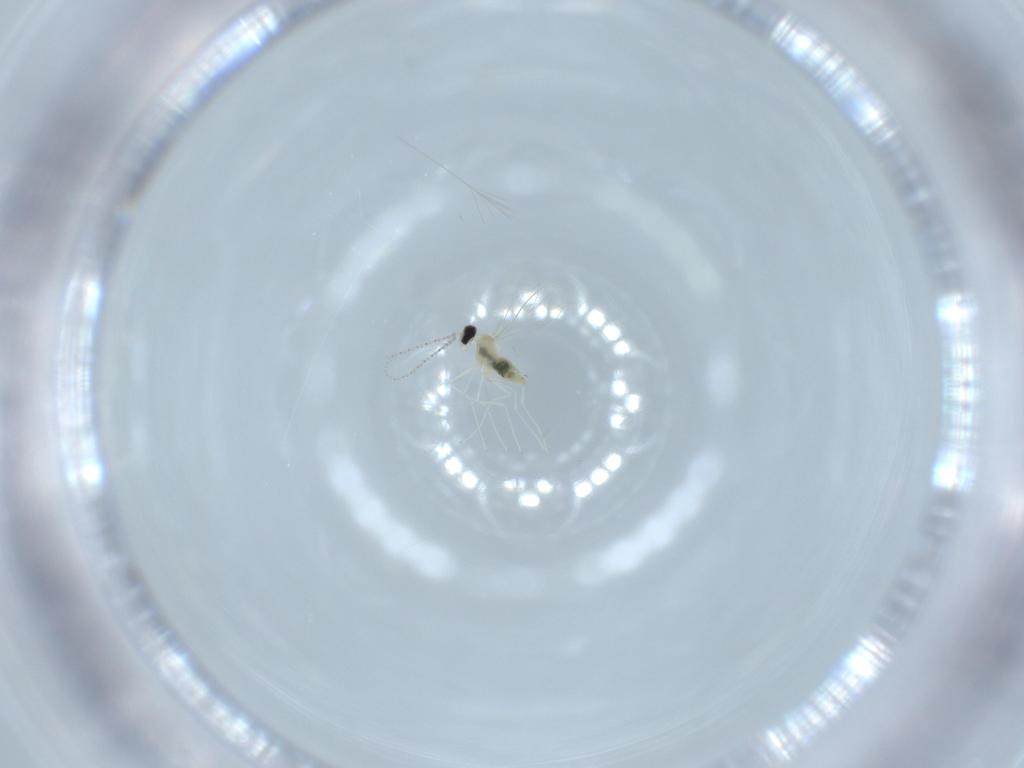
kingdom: Animalia
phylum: Arthropoda
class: Insecta
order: Diptera
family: Cecidomyiidae
